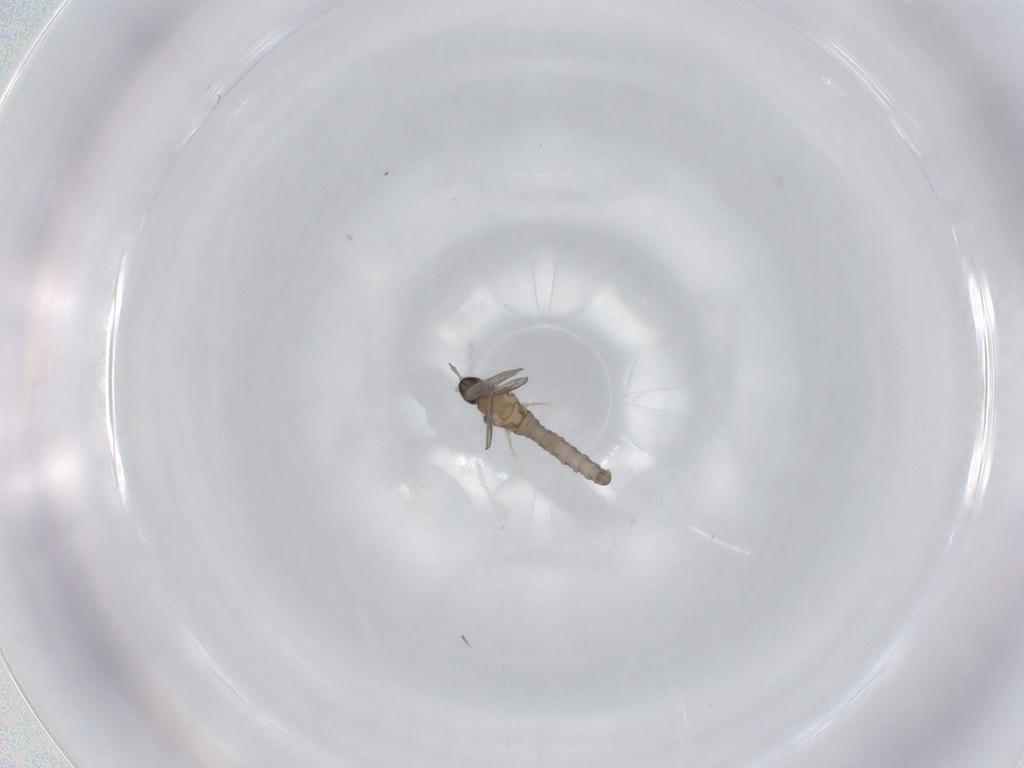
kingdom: Animalia
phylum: Arthropoda
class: Insecta
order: Diptera
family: Cecidomyiidae
